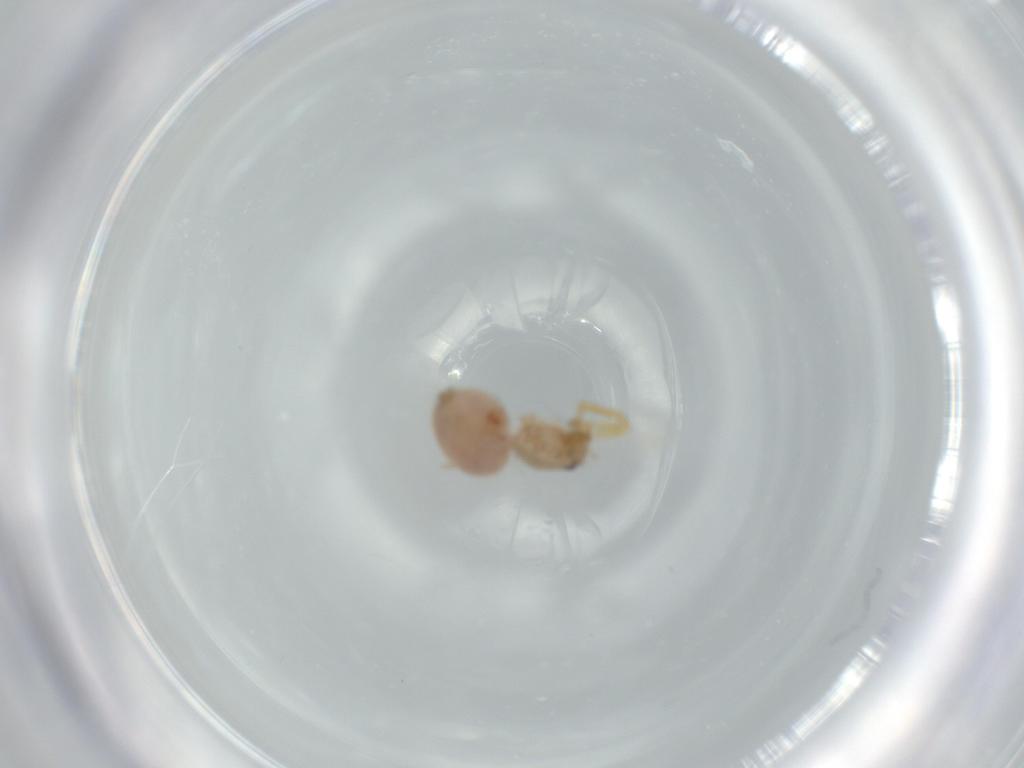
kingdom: Animalia
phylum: Arthropoda
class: Arachnida
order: Araneae
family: Oonopidae
